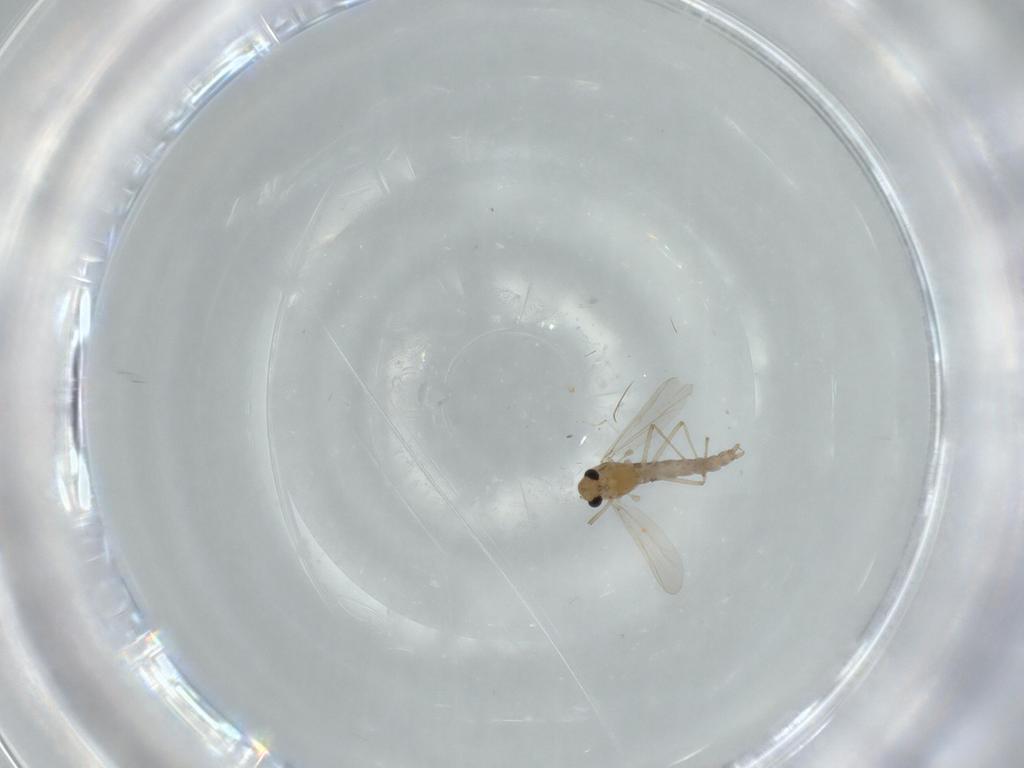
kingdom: Animalia
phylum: Arthropoda
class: Insecta
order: Diptera
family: Chironomidae
